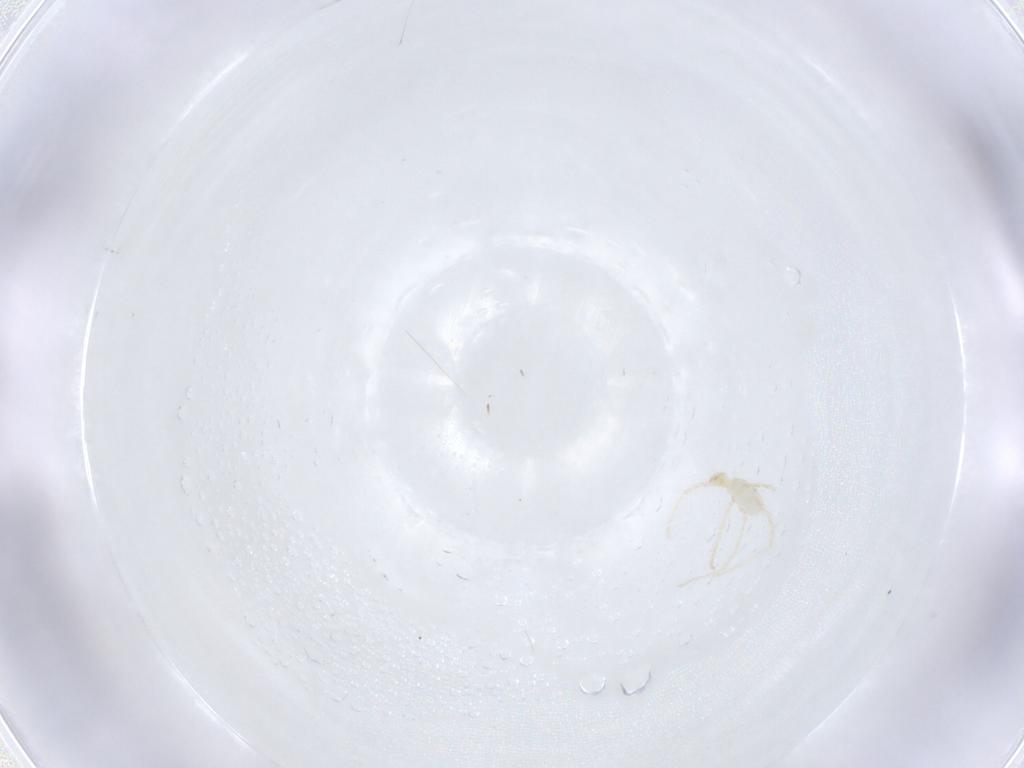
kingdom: Animalia
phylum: Arthropoda
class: Arachnida
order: Trombidiformes
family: Erythraeidae
